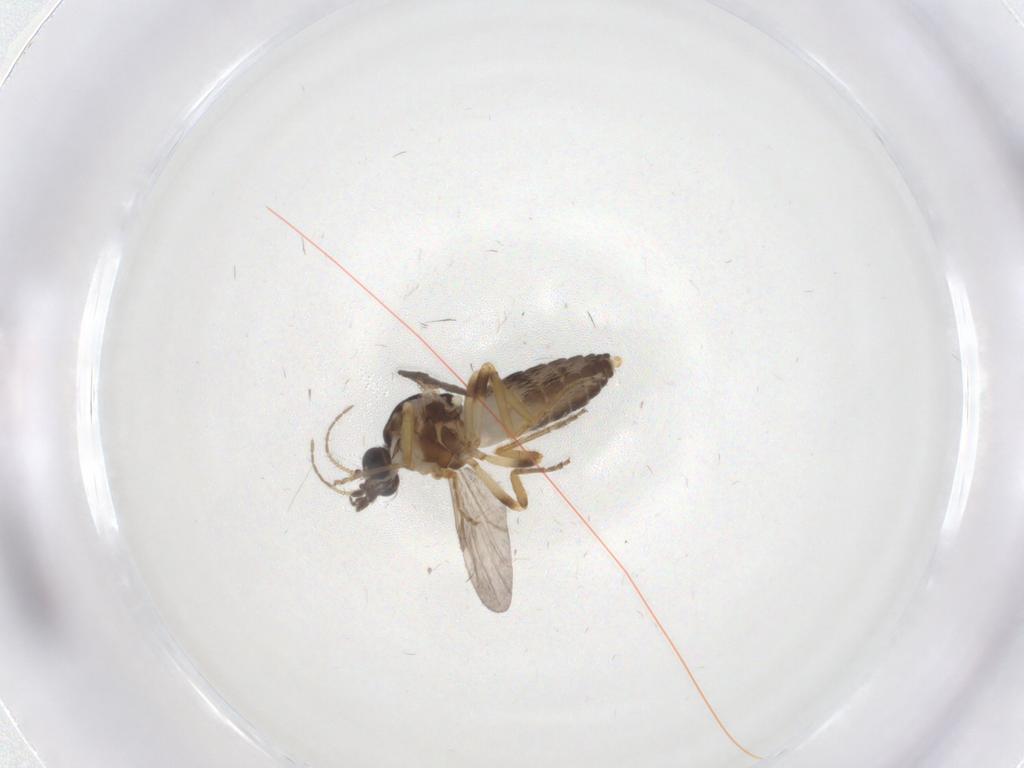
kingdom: Animalia
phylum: Arthropoda
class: Insecta
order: Diptera
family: Ceratopogonidae
